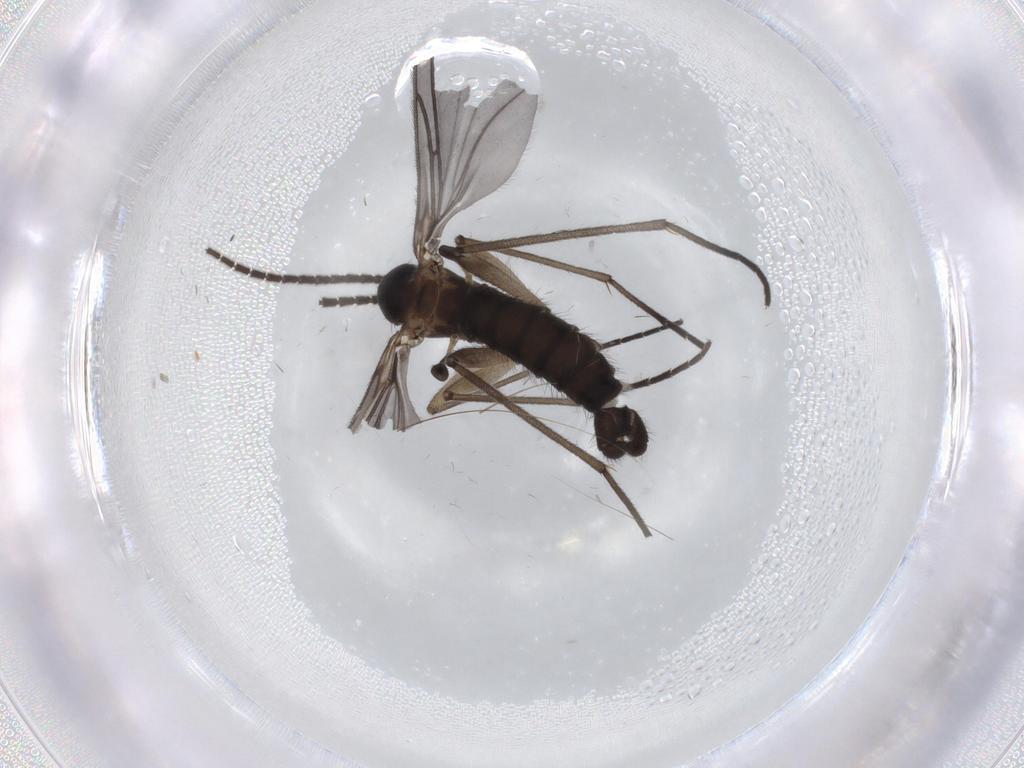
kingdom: Animalia
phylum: Arthropoda
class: Insecta
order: Diptera
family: Sciaridae
